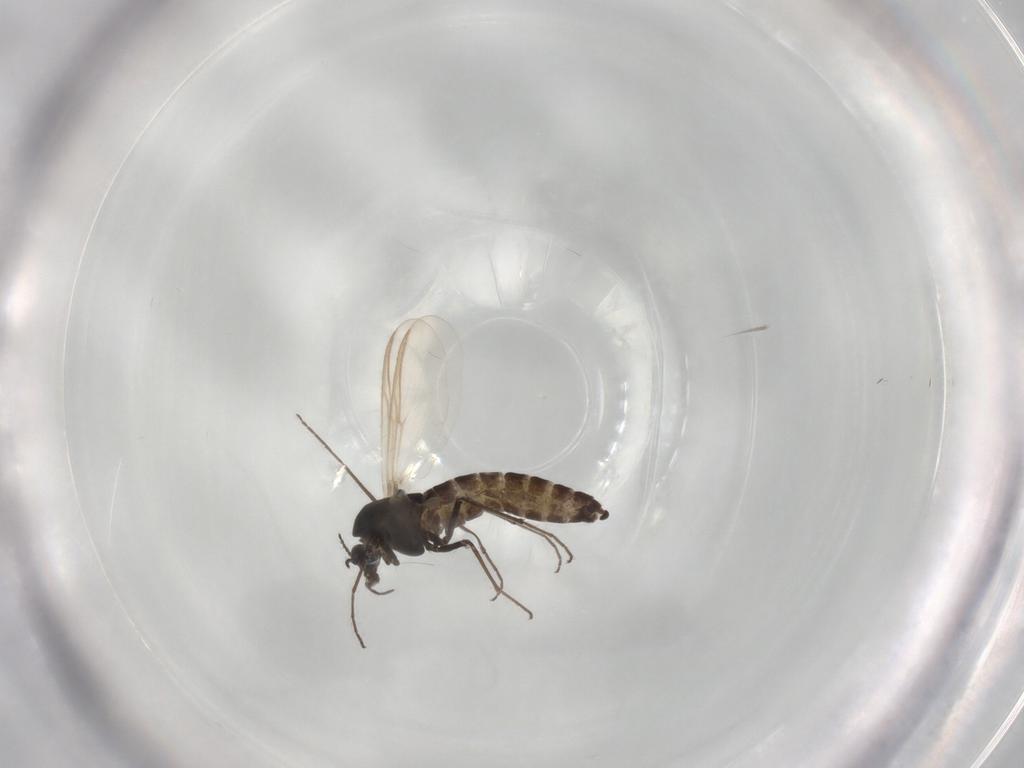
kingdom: Animalia
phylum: Arthropoda
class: Insecta
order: Diptera
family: Chironomidae
